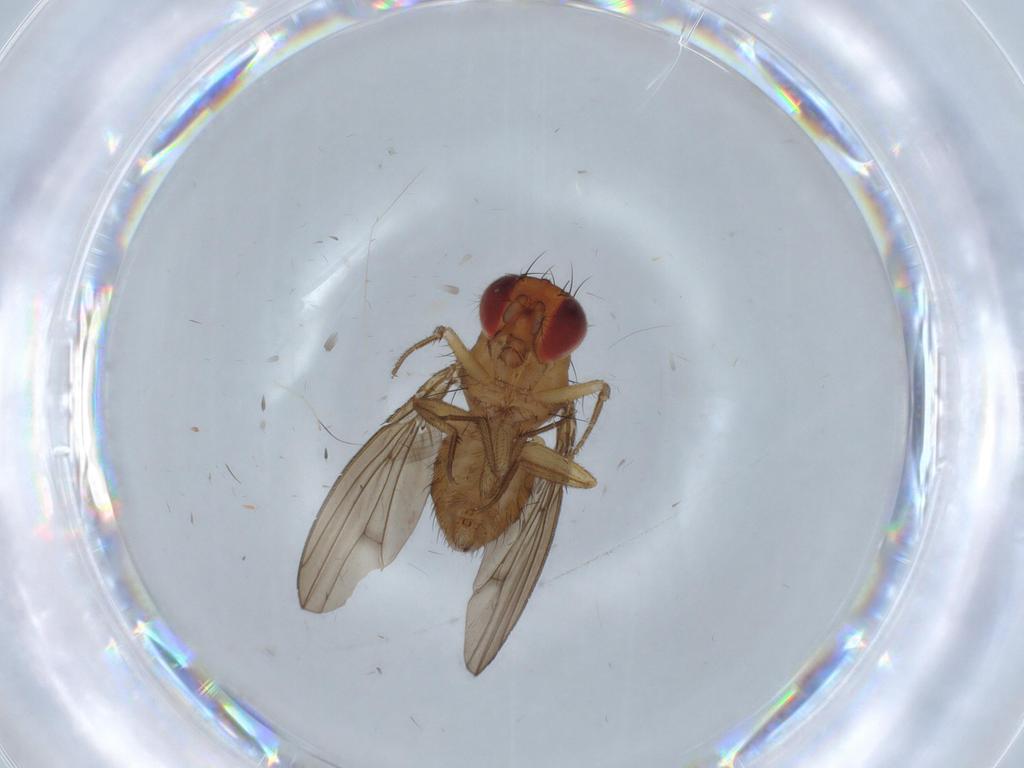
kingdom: Animalia
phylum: Arthropoda
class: Insecta
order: Diptera
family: Drosophilidae
